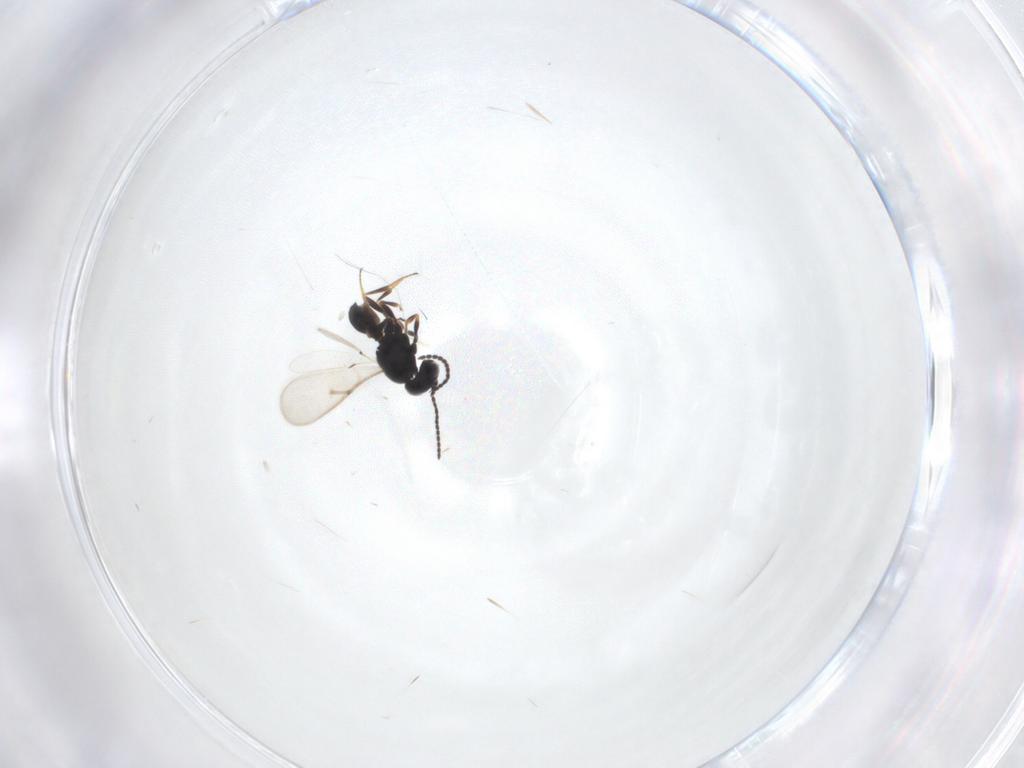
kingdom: Animalia
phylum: Arthropoda
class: Insecta
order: Hymenoptera
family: Scelionidae
